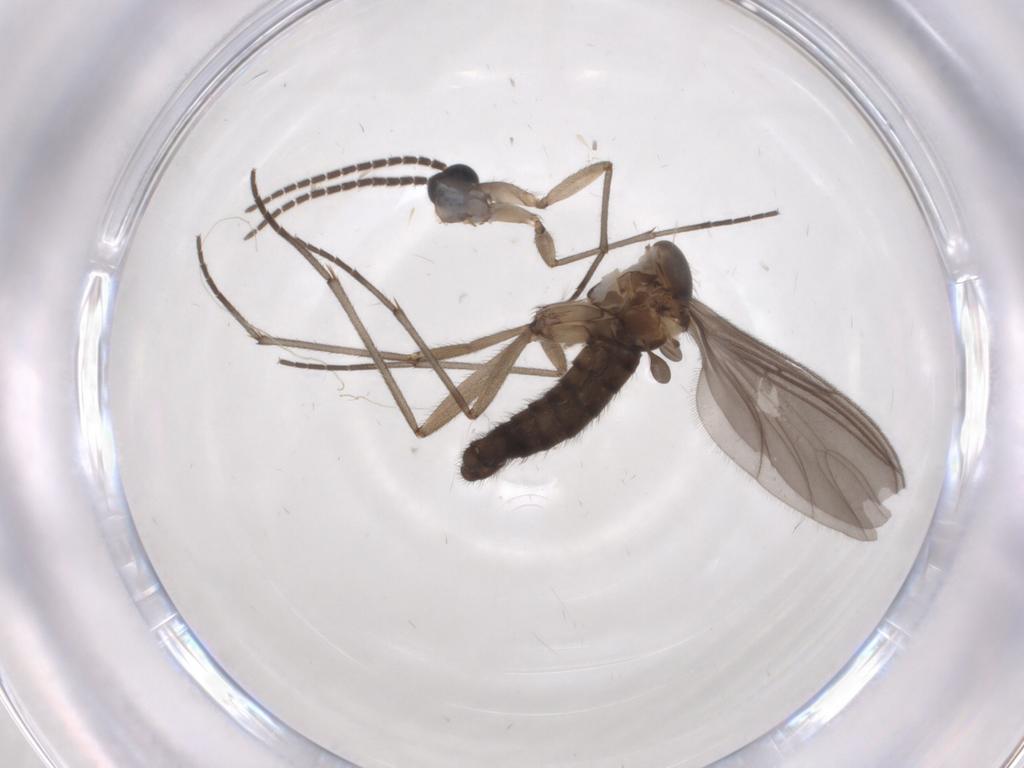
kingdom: Animalia
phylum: Arthropoda
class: Insecta
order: Diptera
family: Sciaridae
